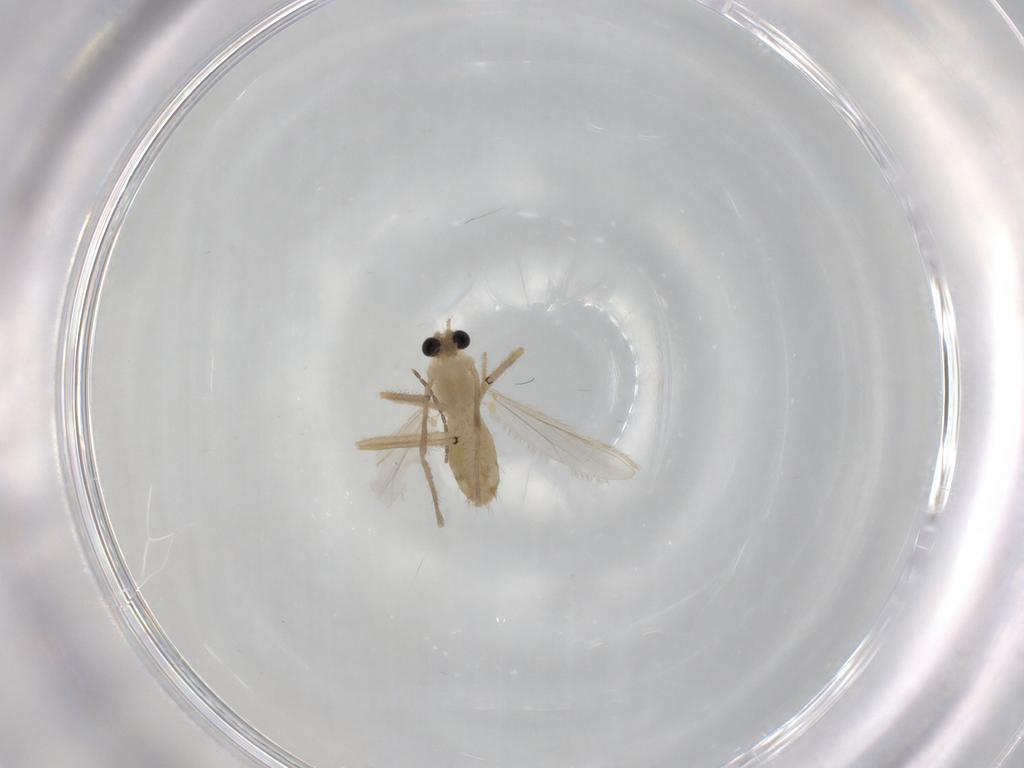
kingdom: Animalia
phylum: Arthropoda
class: Insecta
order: Diptera
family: Chironomidae
